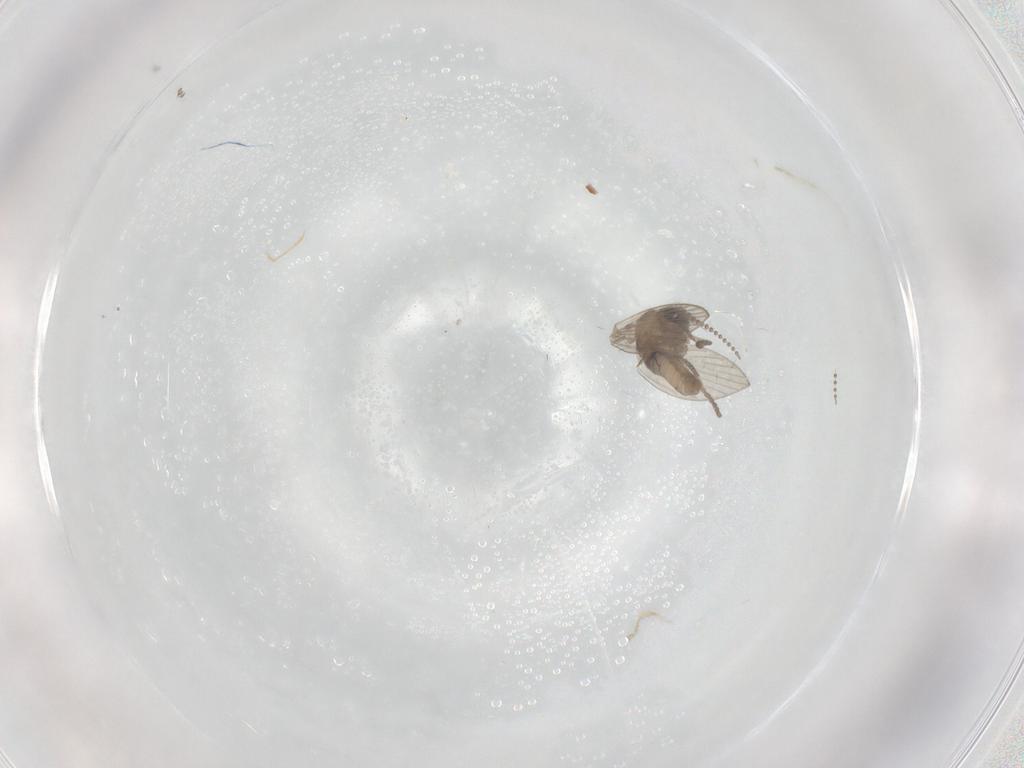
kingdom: Animalia
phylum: Arthropoda
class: Insecta
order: Diptera
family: Psychodidae
